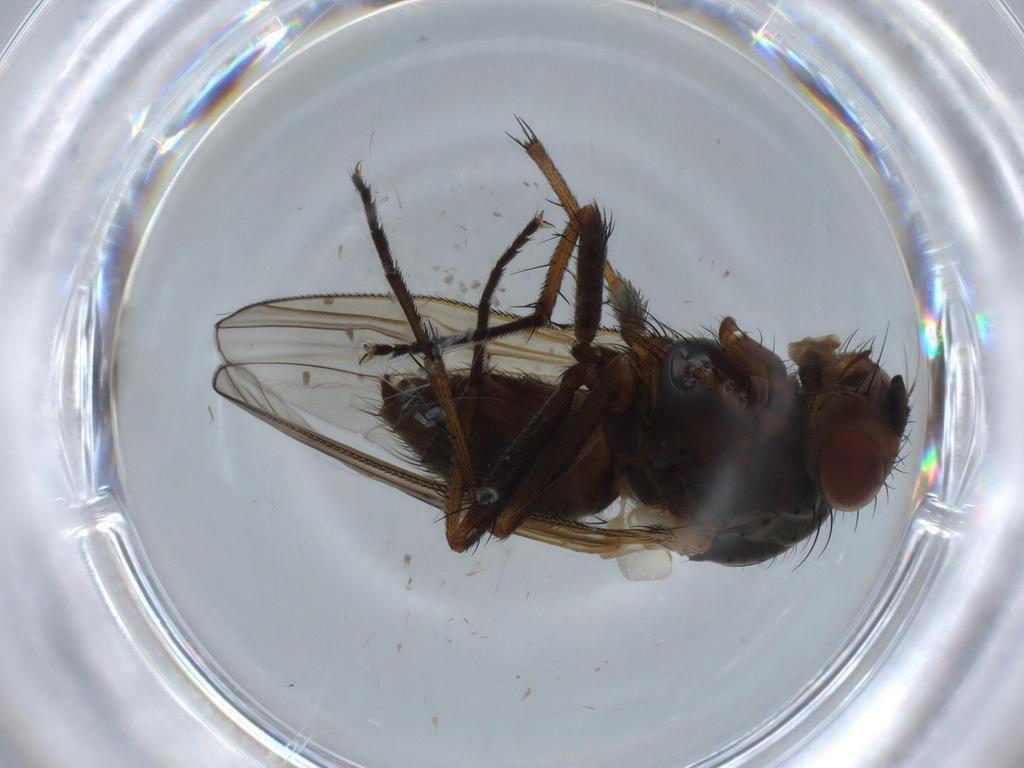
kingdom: Animalia
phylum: Arthropoda
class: Insecta
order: Diptera
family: Anthomyiidae
